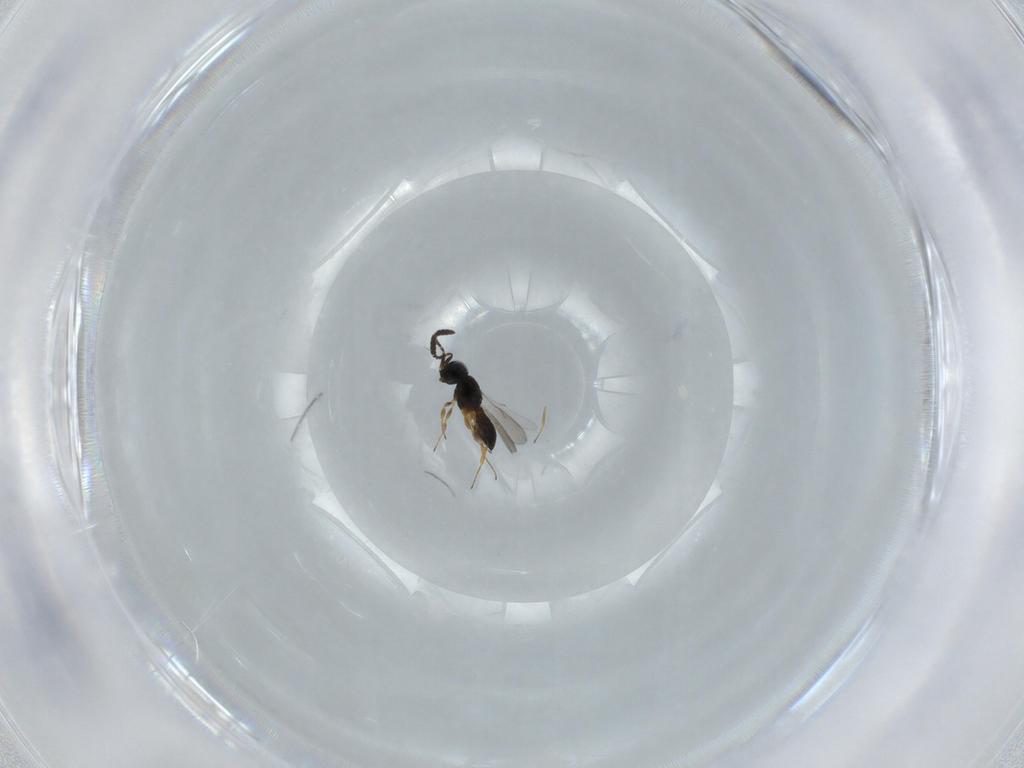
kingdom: Animalia
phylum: Arthropoda
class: Insecta
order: Hymenoptera
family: Scelionidae
